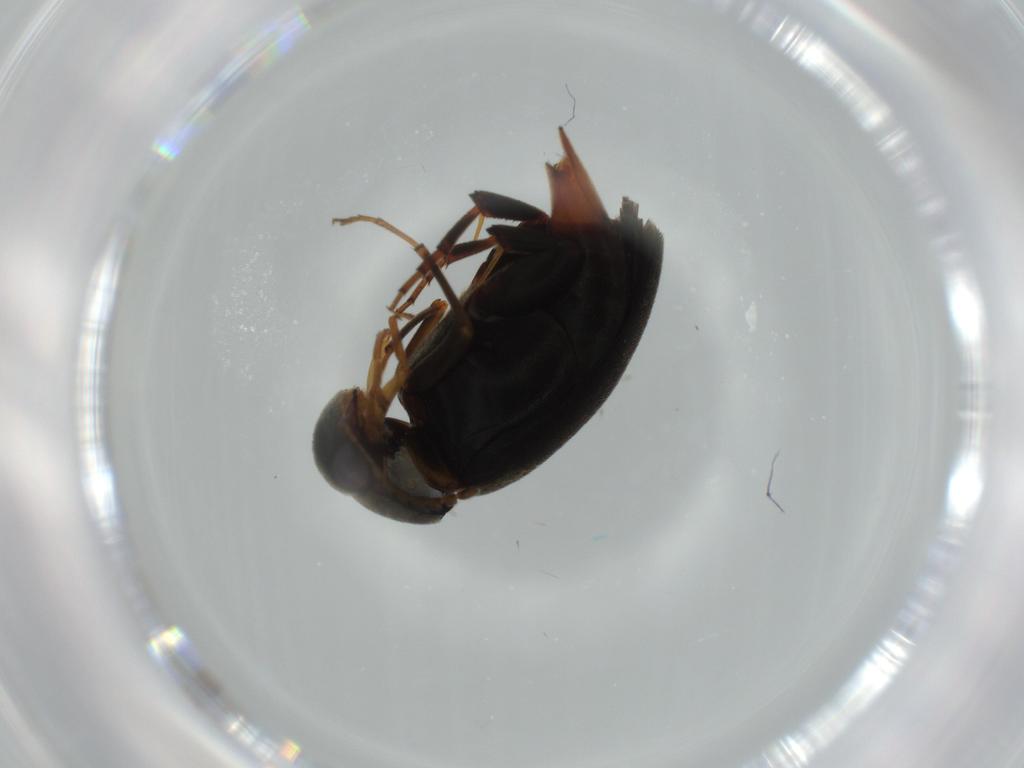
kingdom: Animalia
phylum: Arthropoda
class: Insecta
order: Coleoptera
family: Mordellidae
